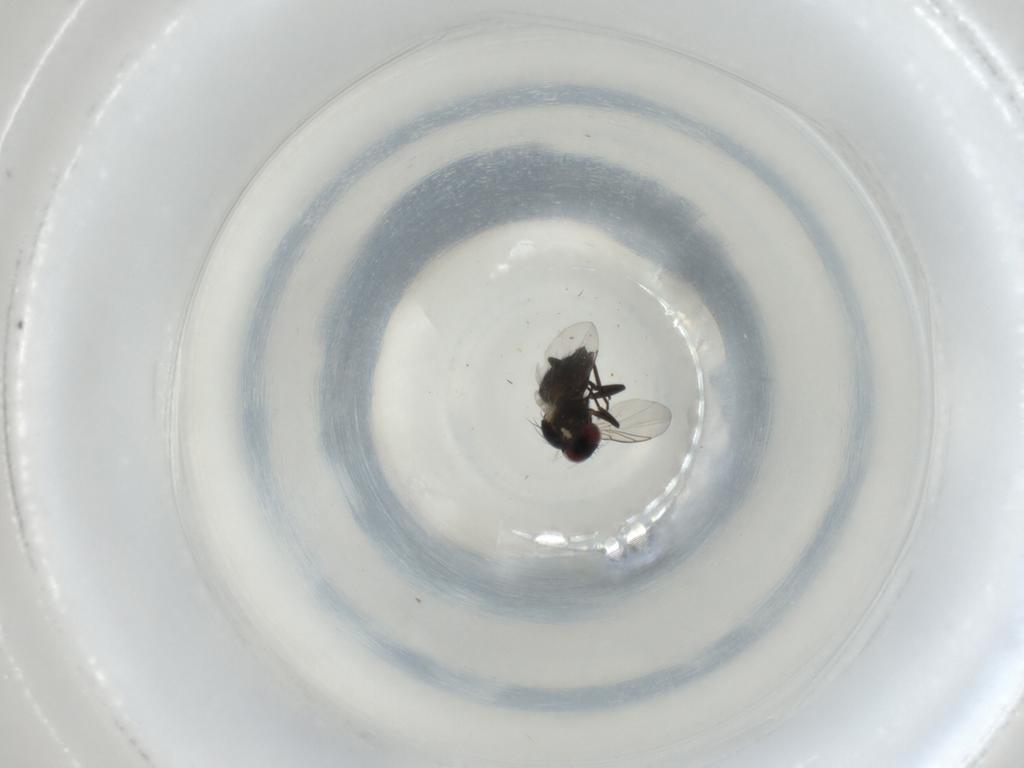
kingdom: Animalia
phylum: Arthropoda
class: Insecta
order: Diptera
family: Agromyzidae
